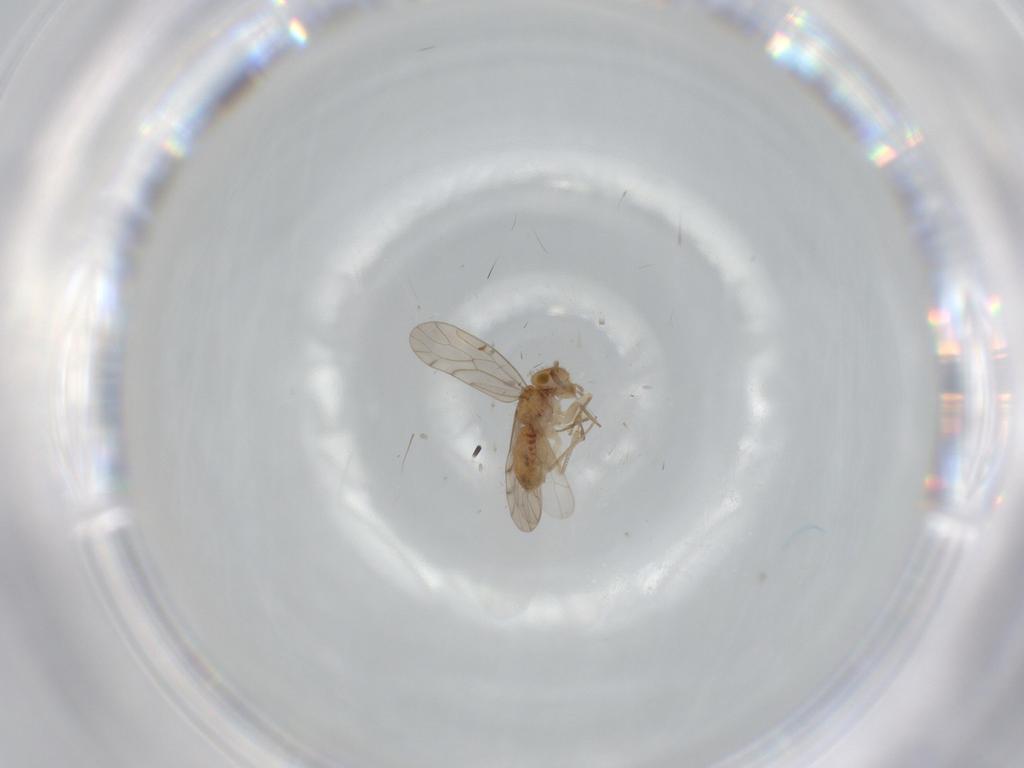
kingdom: Animalia
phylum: Arthropoda
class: Insecta
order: Psocodea
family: Ectopsocidae
